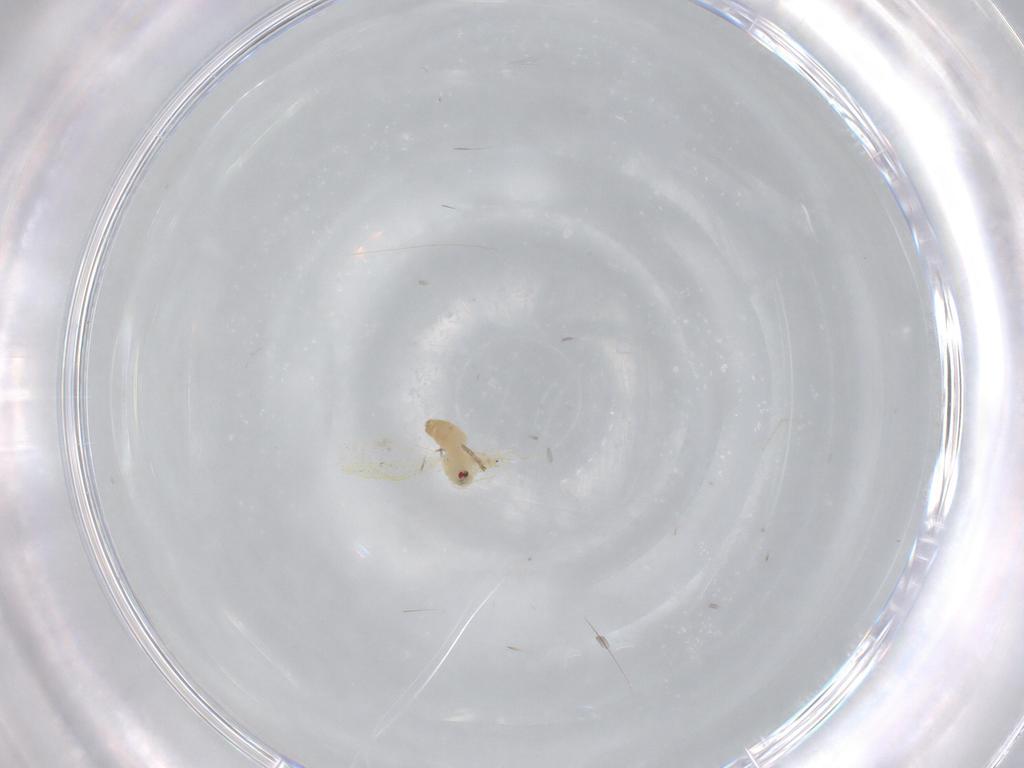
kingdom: Animalia
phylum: Arthropoda
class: Insecta
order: Hemiptera
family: Aleyrodidae
